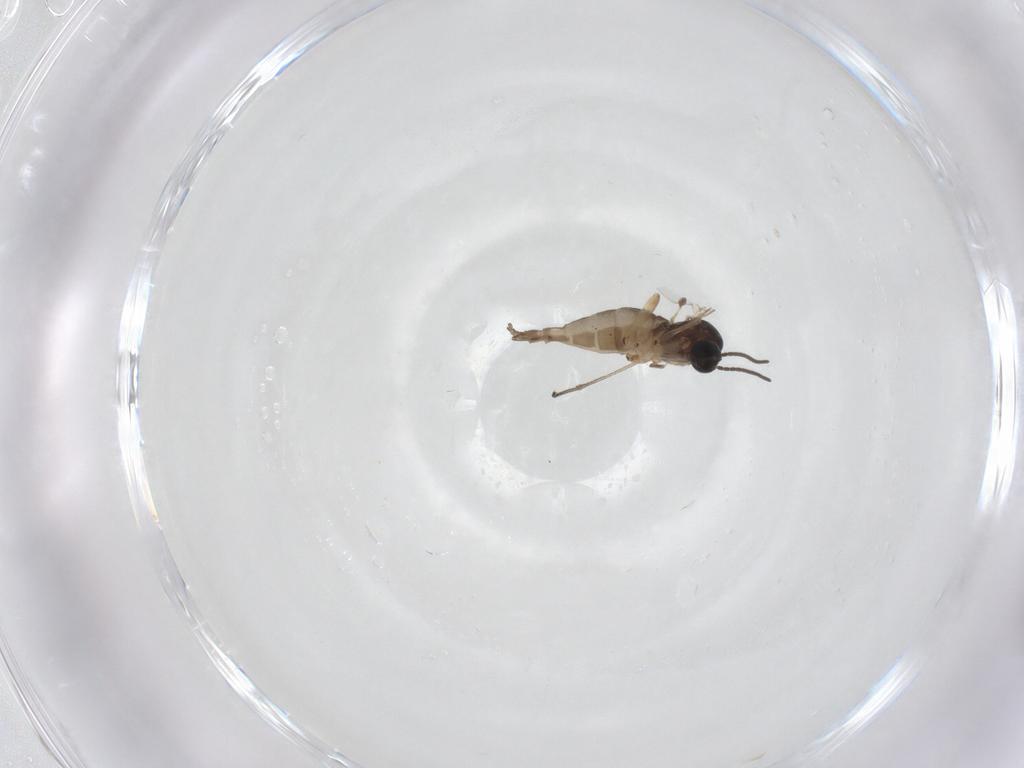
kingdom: Animalia
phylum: Arthropoda
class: Insecta
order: Diptera
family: Sciaridae
